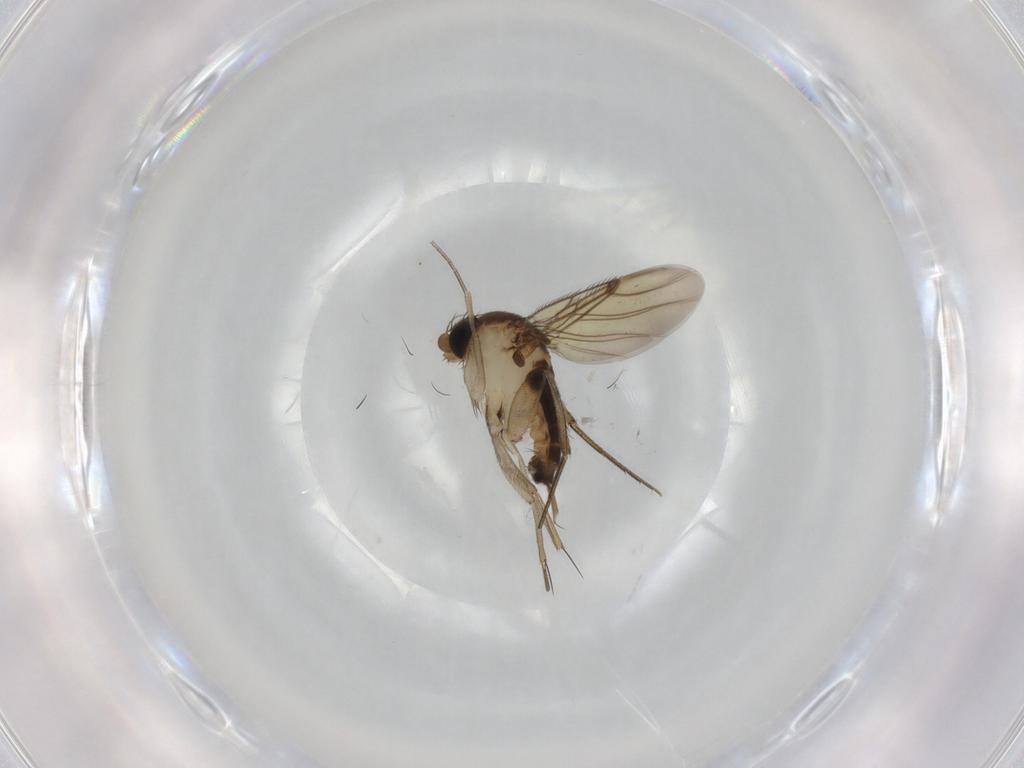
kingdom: Animalia
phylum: Arthropoda
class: Insecta
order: Diptera
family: Phoridae
